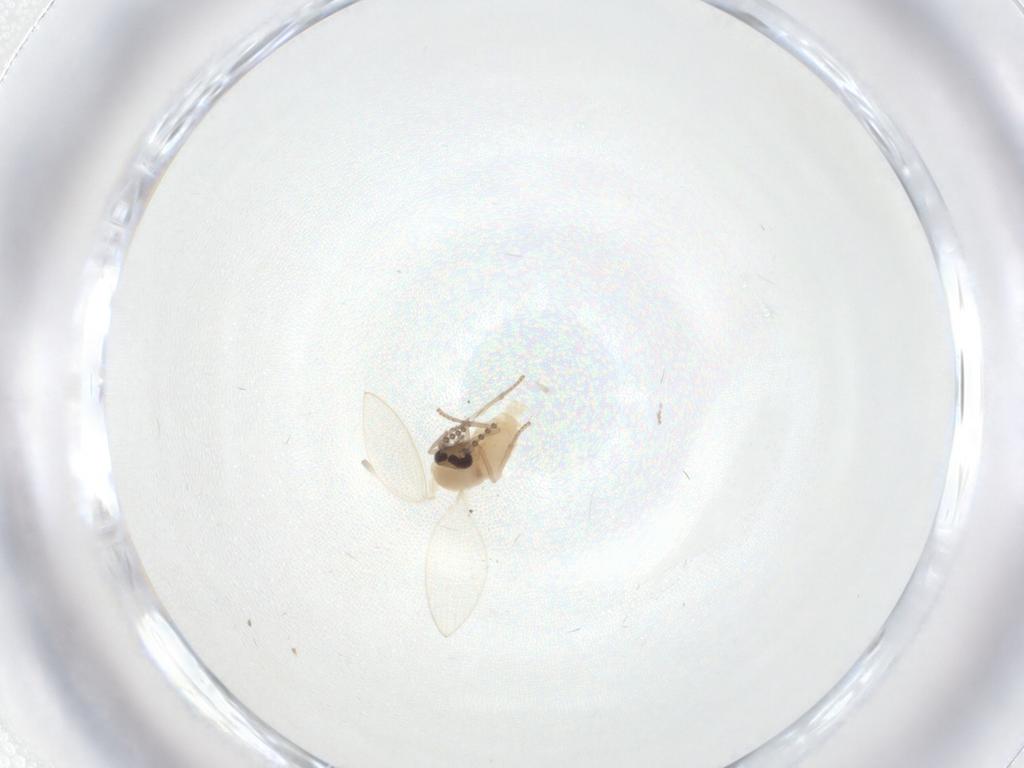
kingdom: Animalia
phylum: Arthropoda
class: Insecta
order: Diptera
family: Psychodidae
